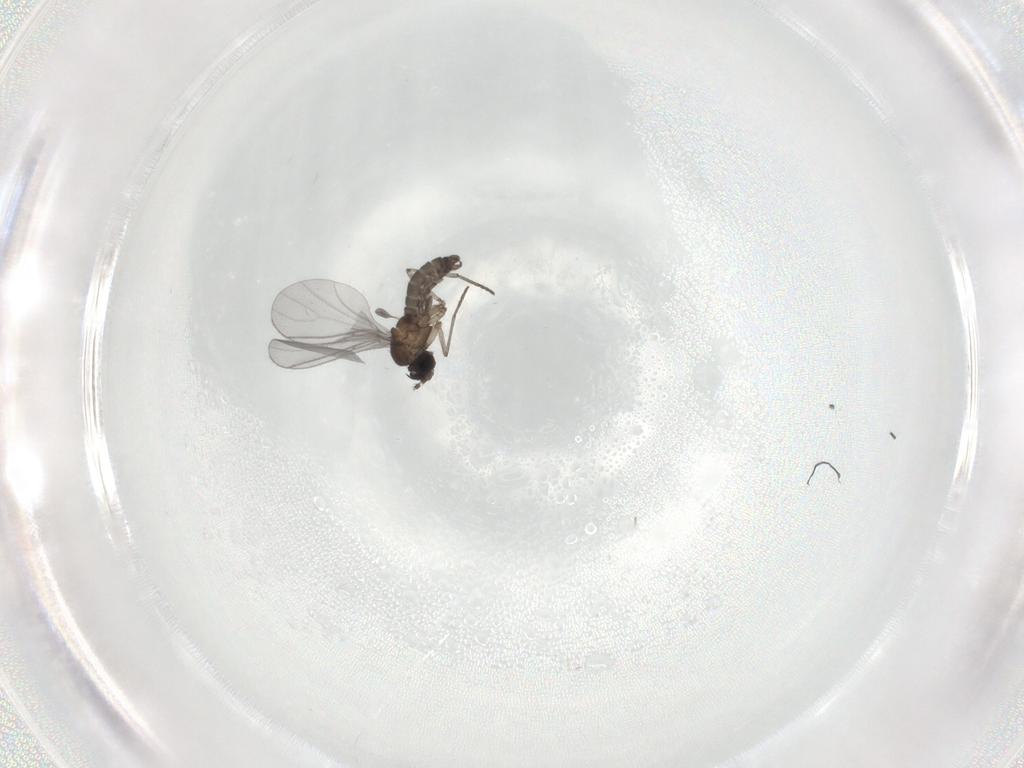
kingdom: Animalia
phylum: Arthropoda
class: Insecta
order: Diptera
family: Sciaridae
